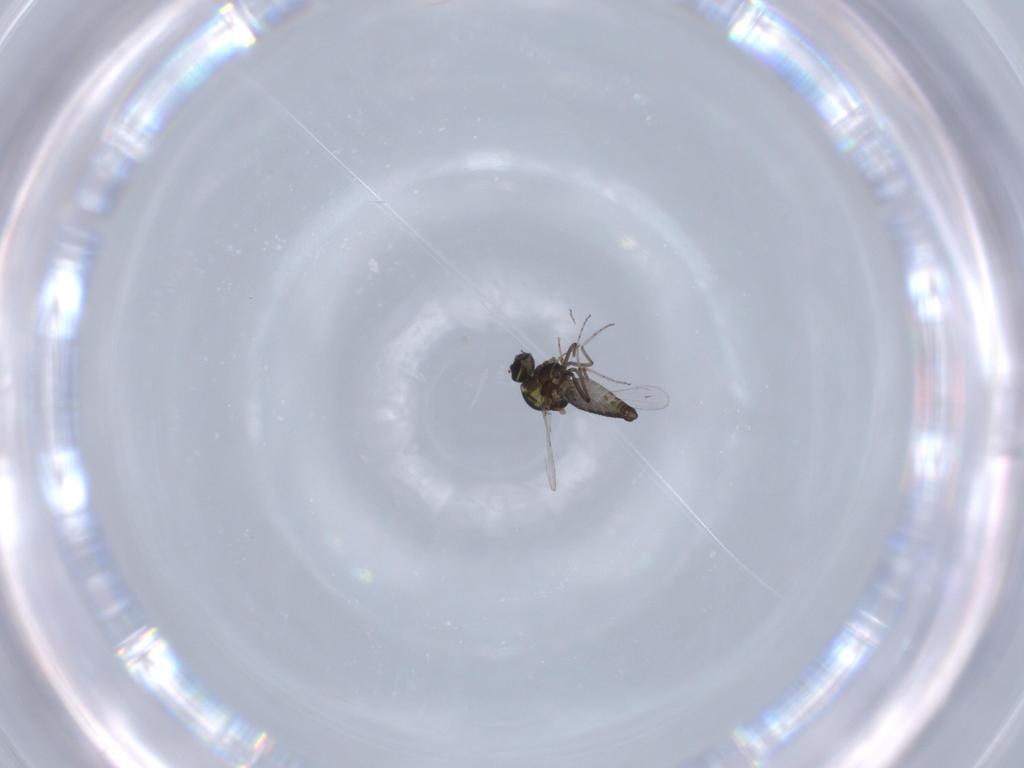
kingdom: Animalia
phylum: Arthropoda
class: Insecta
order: Diptera
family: Ceratopogonidae
